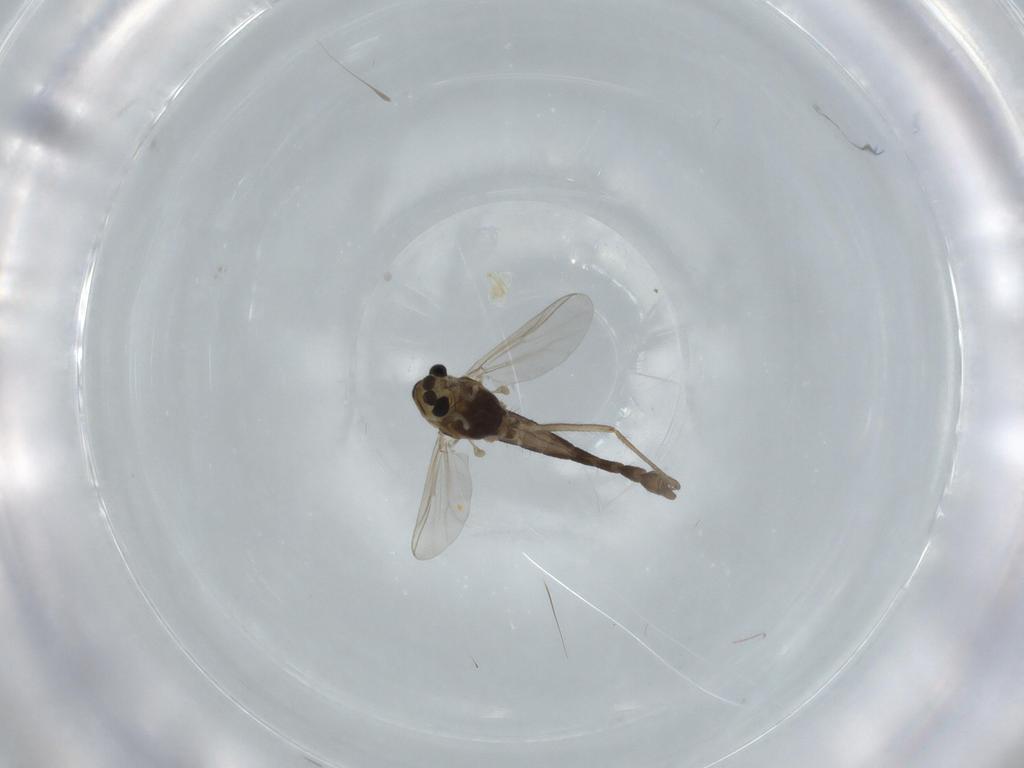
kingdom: Animalia
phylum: Arthropoda
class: Insecta
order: Diptera
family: Chironomidae
